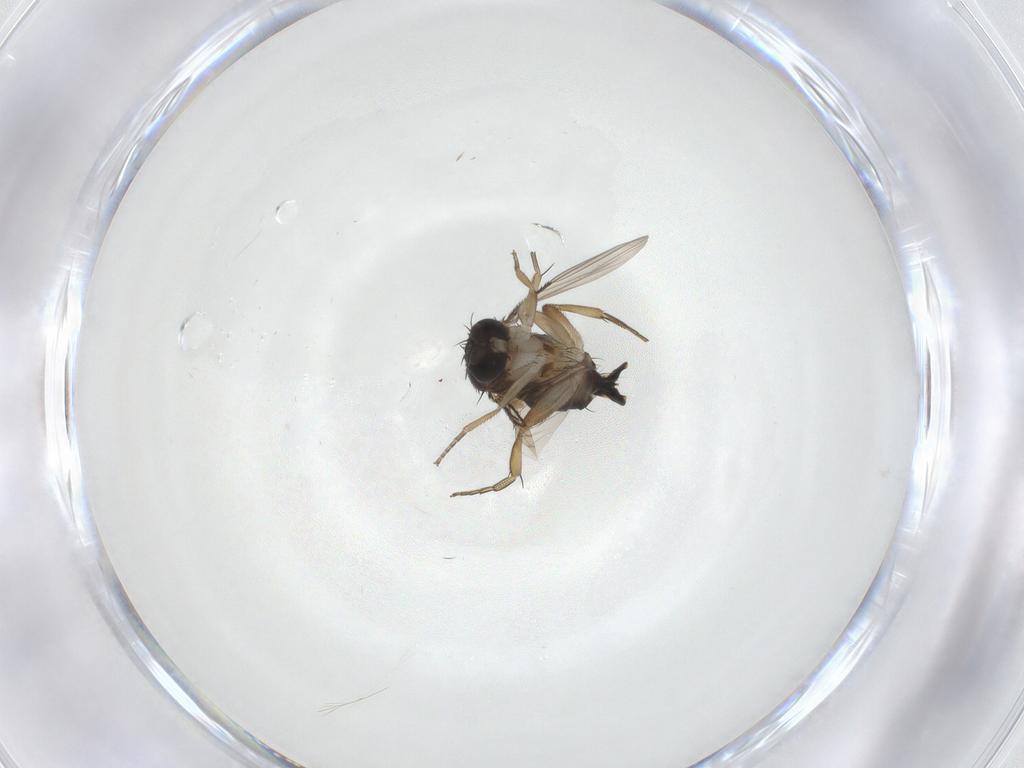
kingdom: Animalia
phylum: Arthropoda
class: Insecta
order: Diptera
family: Phoridae
